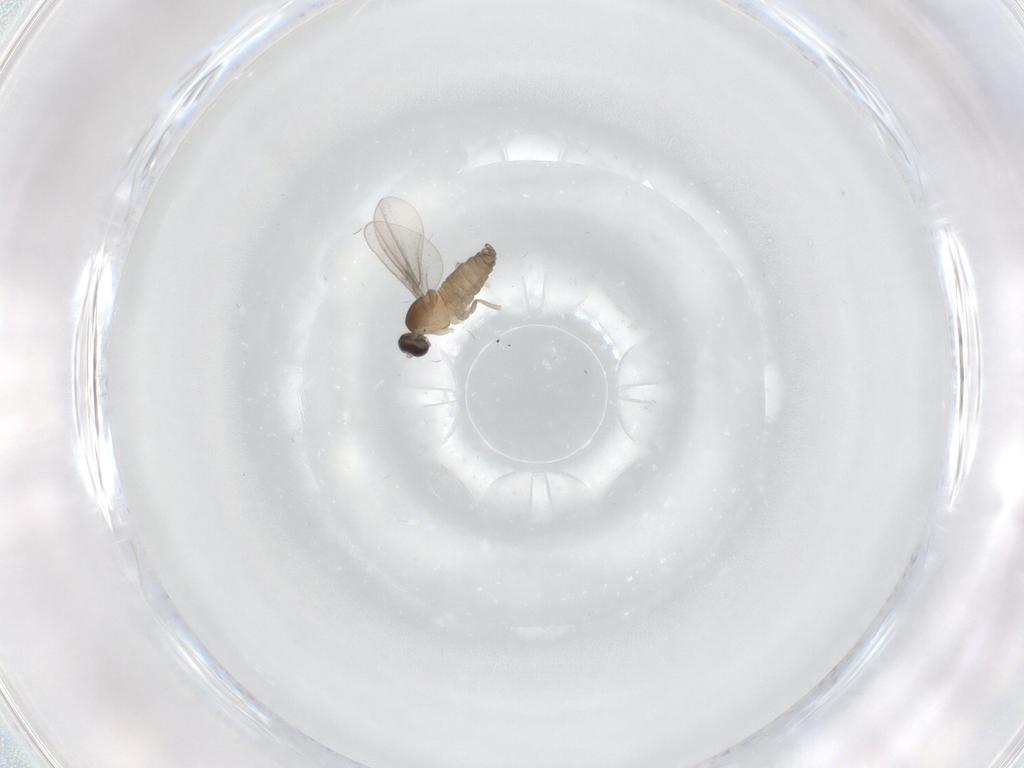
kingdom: Animalia
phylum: Arthropoda
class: Insecta
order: Diptera
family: Cecidomyiidae
